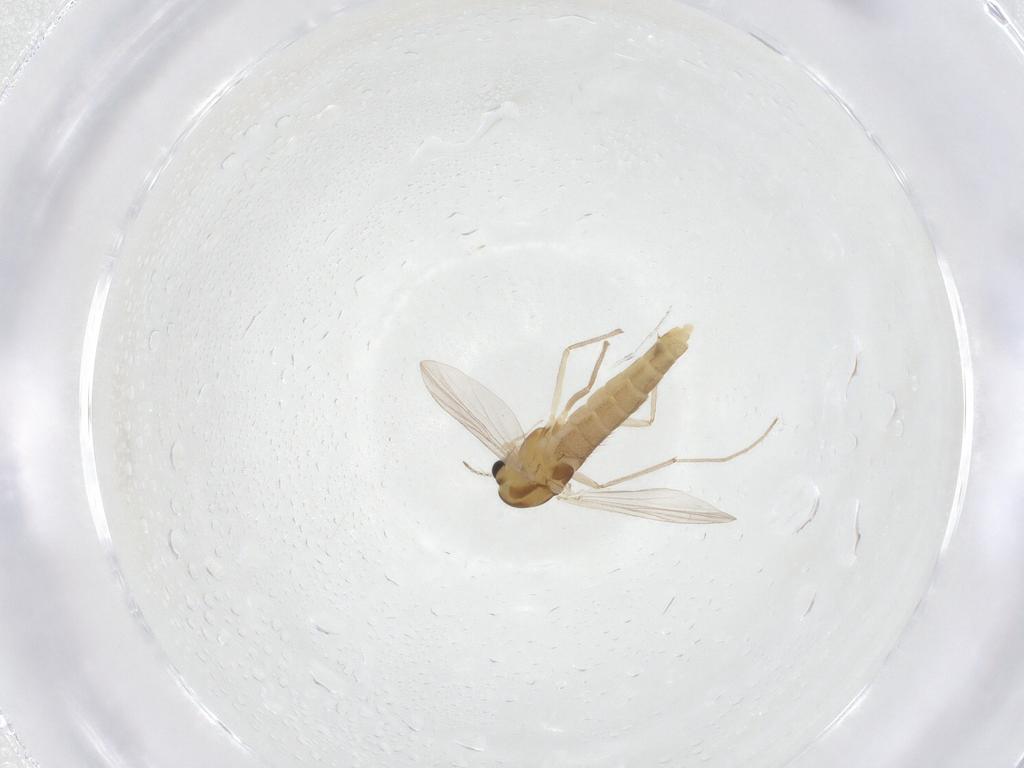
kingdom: Animalia
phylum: Arthropoda
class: Insecta
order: Diptera
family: Chironomidae
